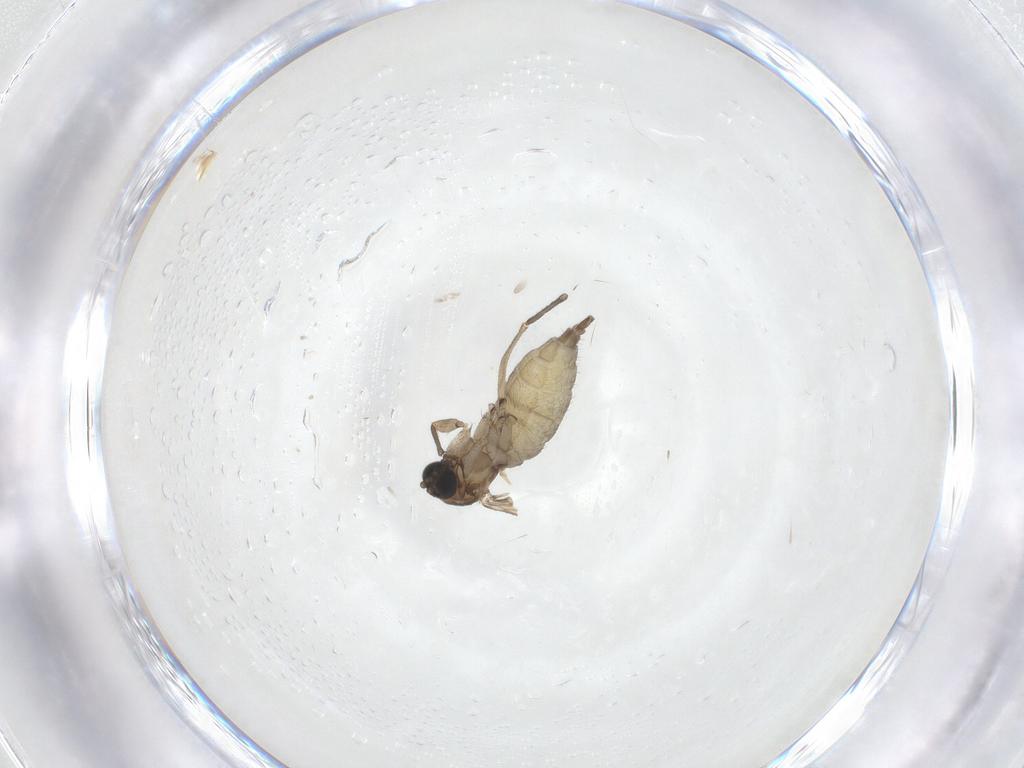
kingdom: Animalia
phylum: Arthropoda
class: Insecta
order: Diptera
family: Sciaridae
